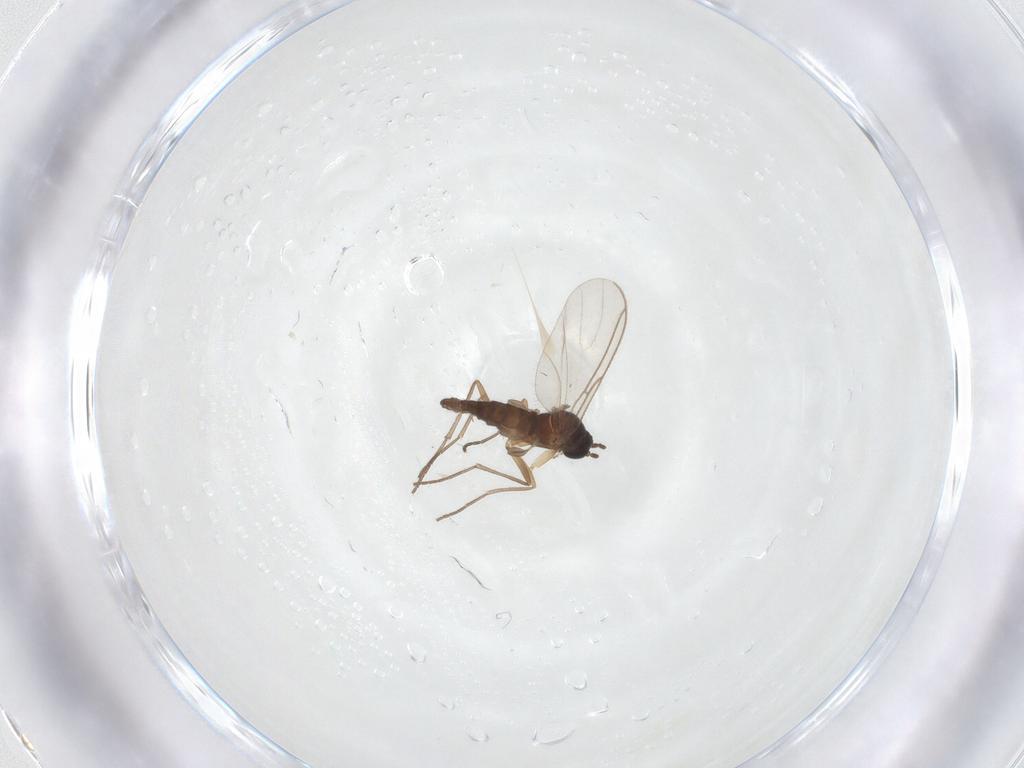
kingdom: Animalia
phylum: Arthropoda
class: Insecta
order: Diptera
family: Sciaridae
